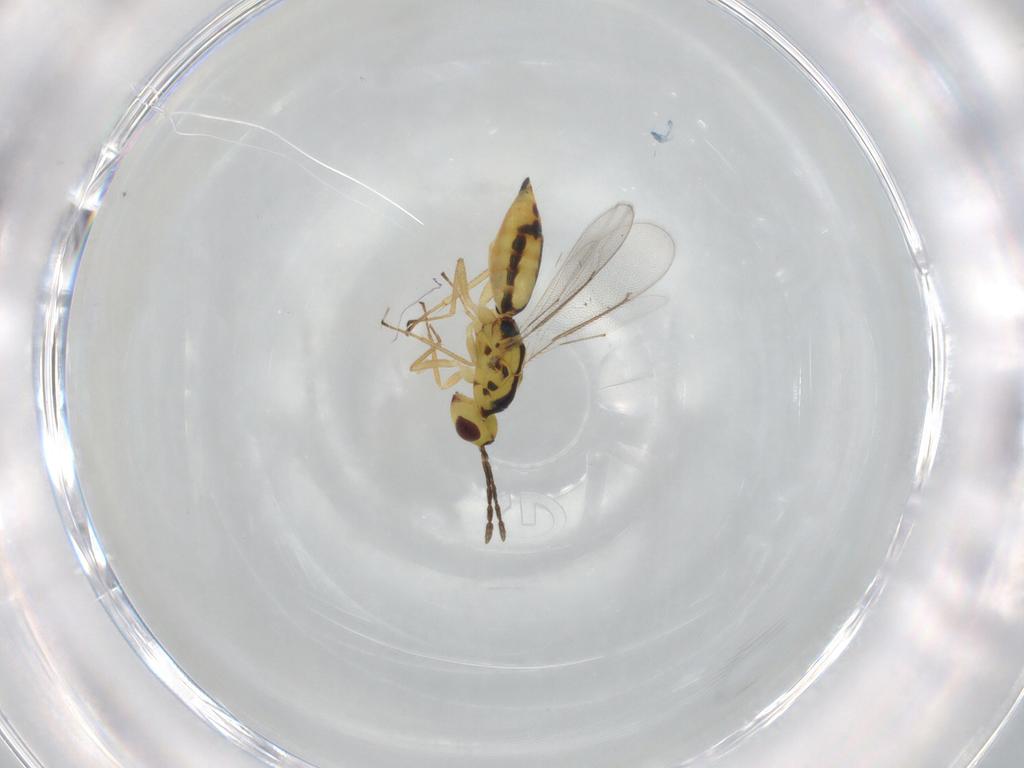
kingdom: Animalia
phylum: Arthropoda
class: Insecta
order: Hymenoptera
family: Eulophidae
